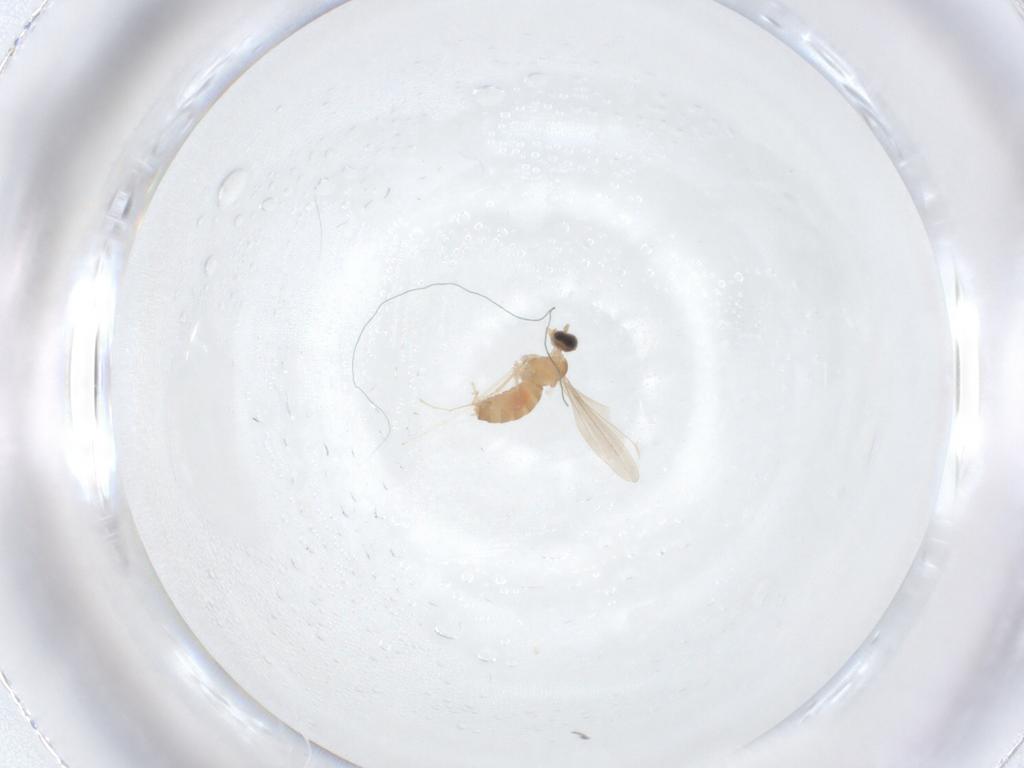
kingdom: Animalia
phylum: Arthropoda
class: Insecta
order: Diptera
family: Cecidomyiidae
